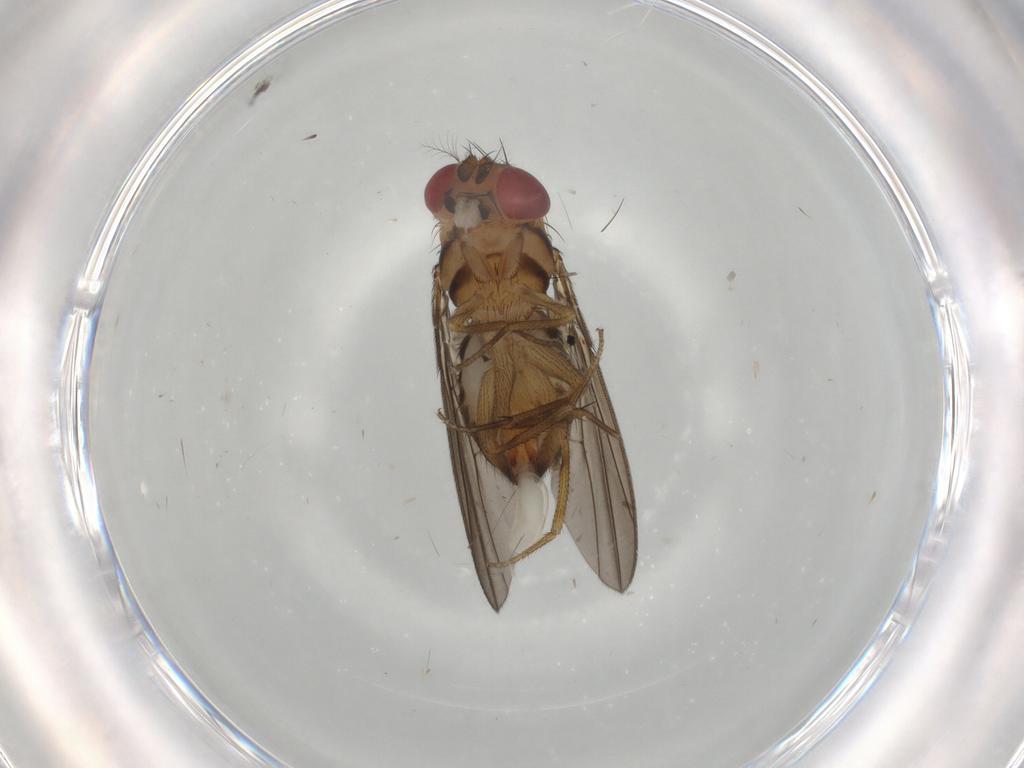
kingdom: Animalia
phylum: Arthropoda
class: Insecta
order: Diptera
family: Drosophilidae
